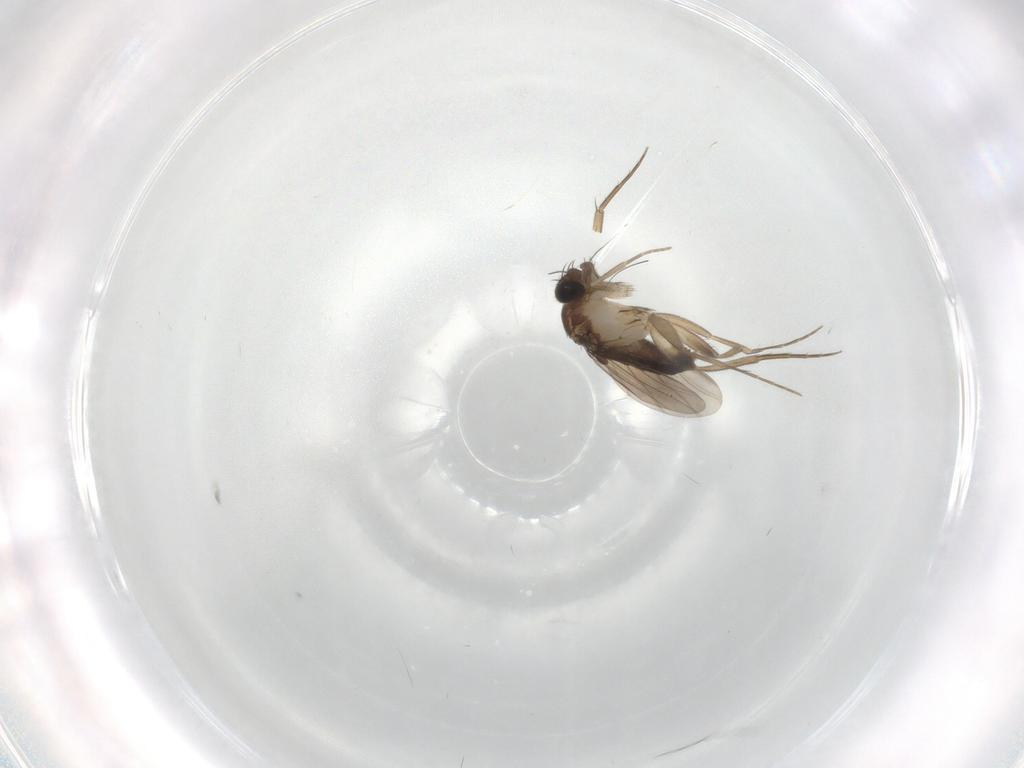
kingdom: Animalia
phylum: Arthropoda
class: Insecta
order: Diptera
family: Phoridae
